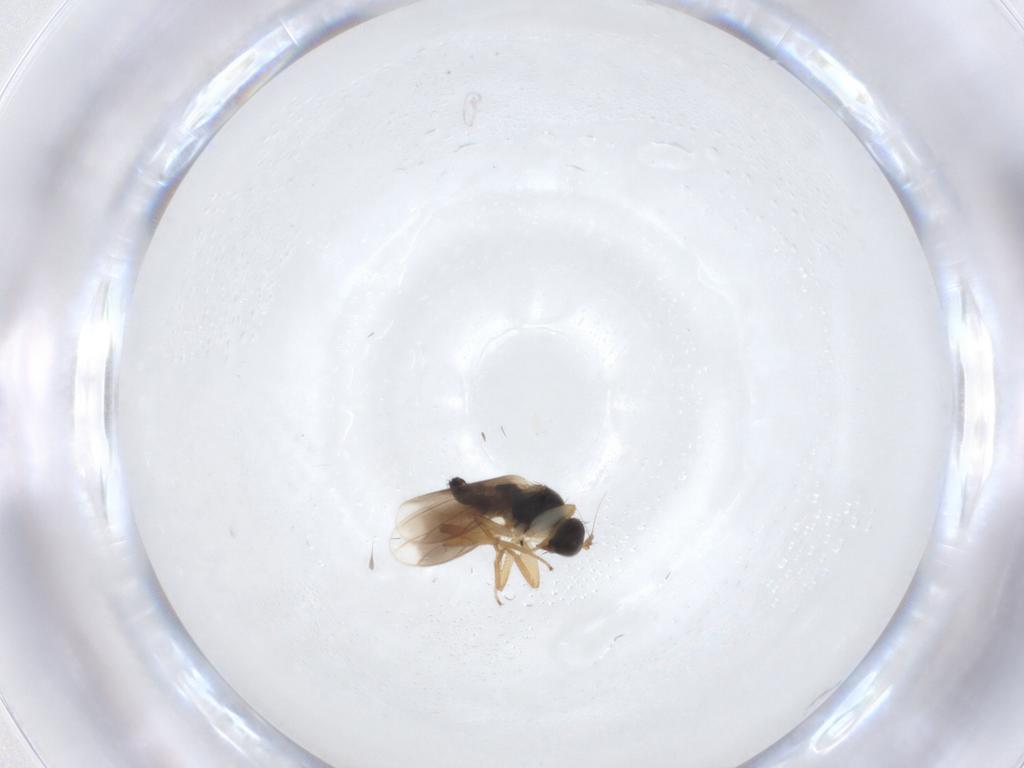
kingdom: Animalia
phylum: Arthropoda
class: Insecta
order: Diptera
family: Hybotidae
